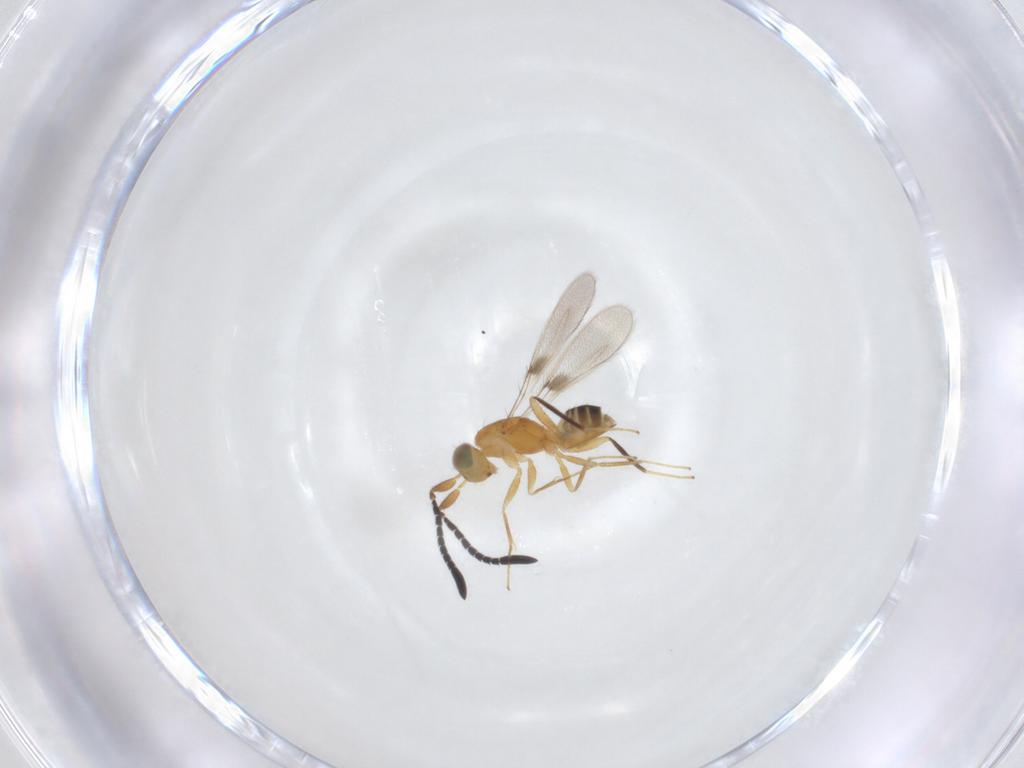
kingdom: Animalia
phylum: Arthropoda
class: Insecta
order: Hymenoptera
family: Mymaridae
